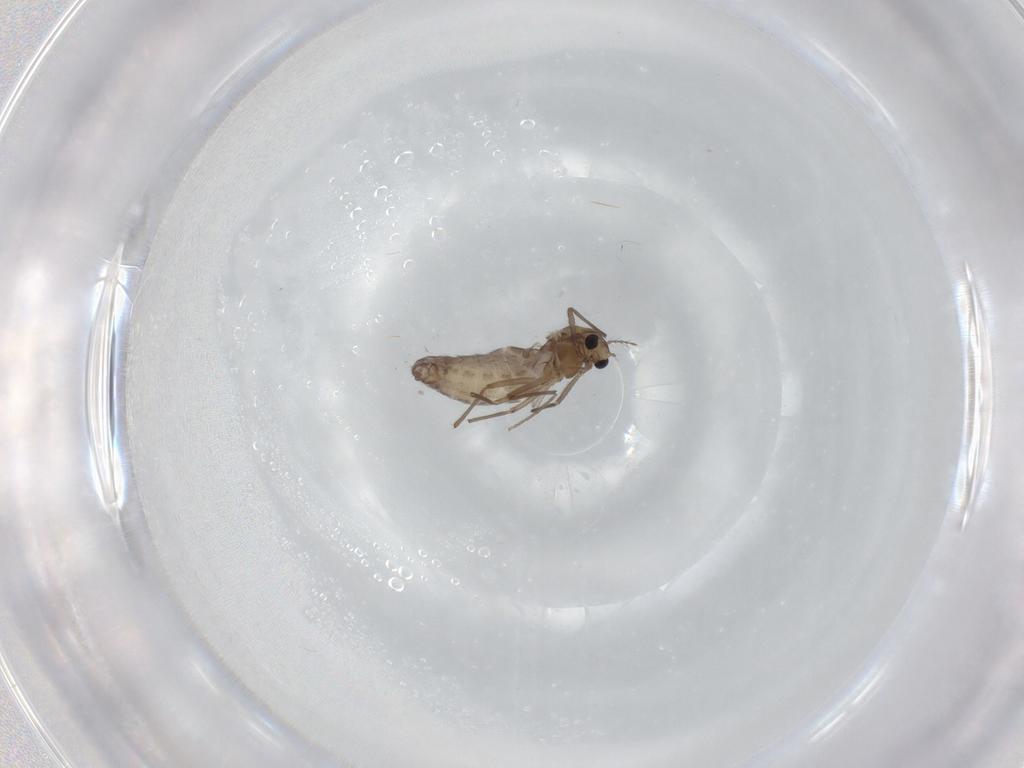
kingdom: Animalia
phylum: Arthropoda
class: Insecta
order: Diptera
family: Chironomidae
